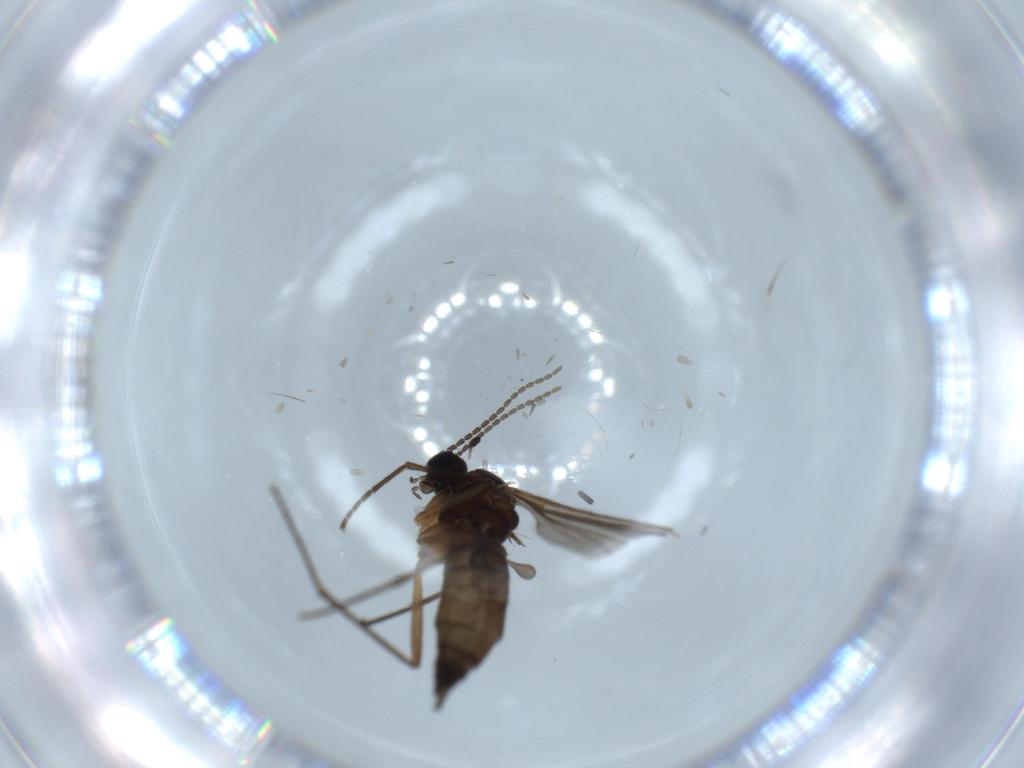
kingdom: Animalia
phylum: Arthropoda
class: Insecta
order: Diptera
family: Sciaridae
